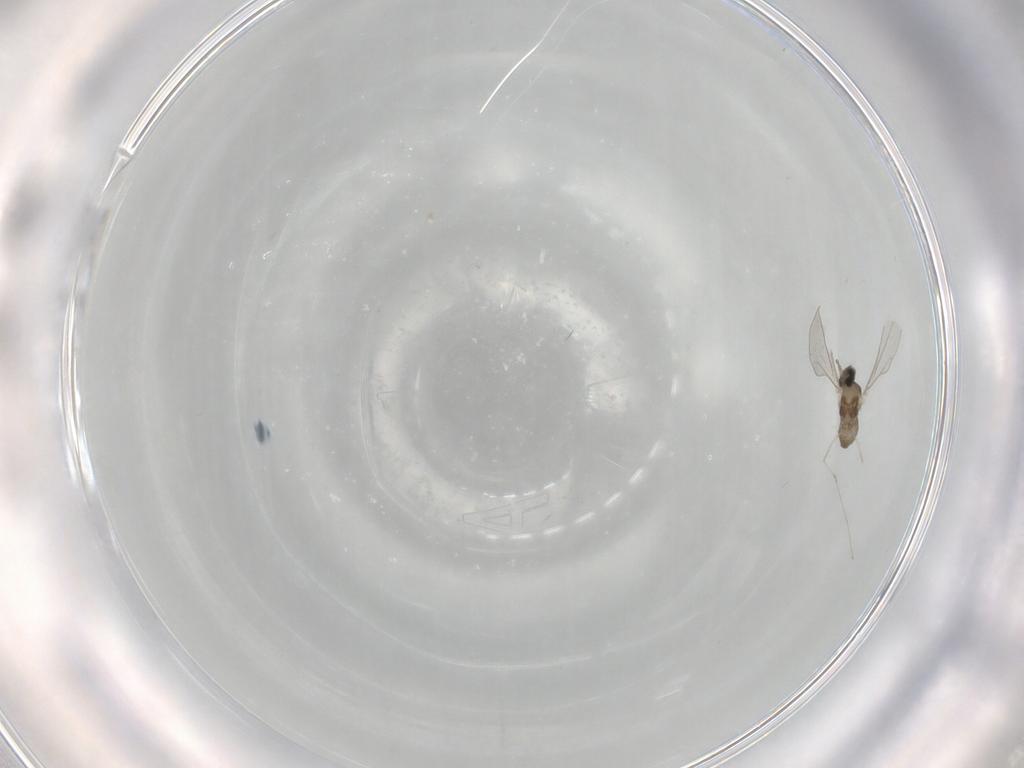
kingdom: Animalia
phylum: Arthropoda
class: Insecta
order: Diptera
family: Cecidomyiidae
